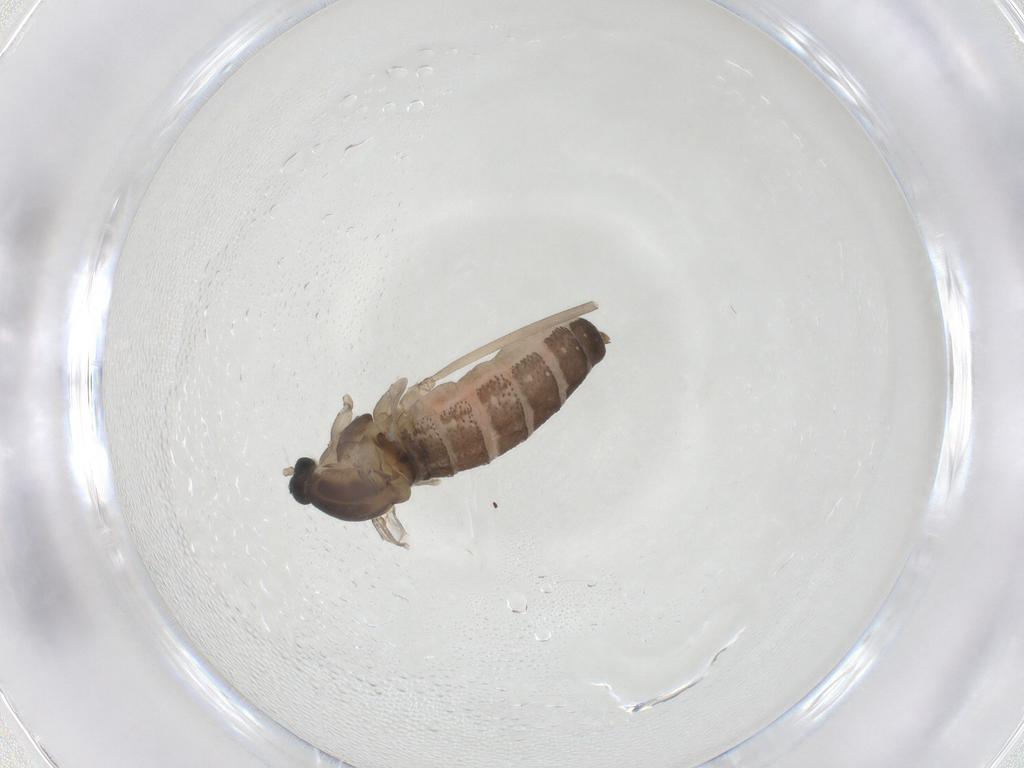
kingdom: Animalia
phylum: Arthropoda
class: Insecta
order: Diptera
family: Cecidomyiidae
